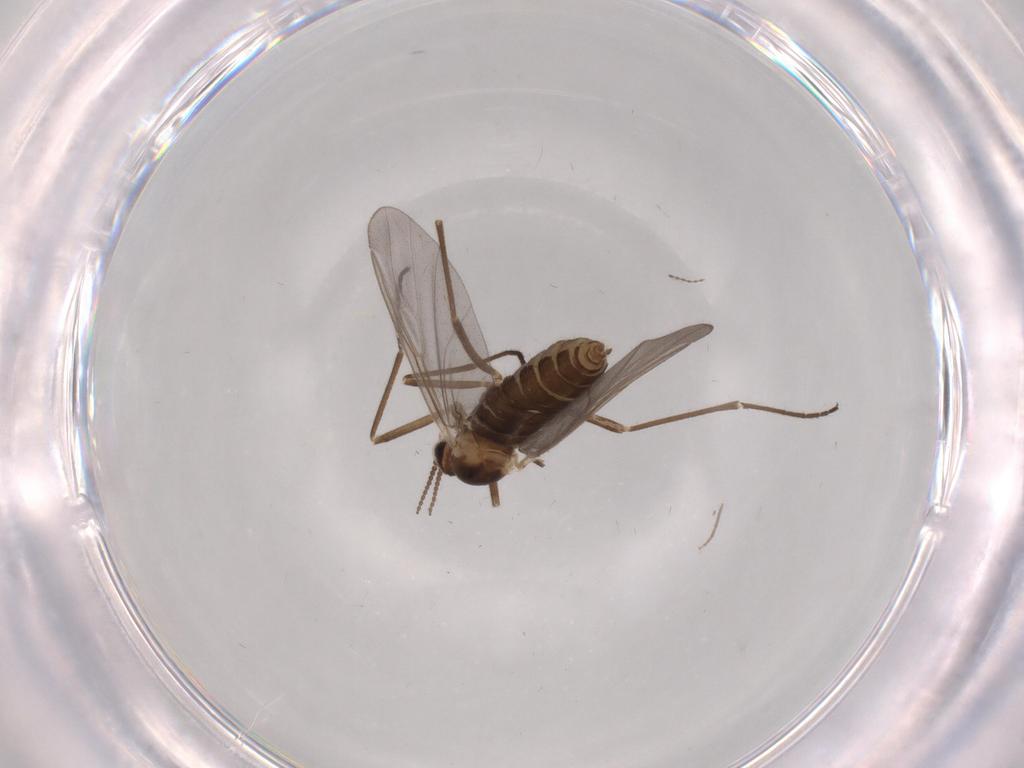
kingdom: Animalia
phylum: Arthropoda
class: Insecta
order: Diptera
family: Cecidomyiidae
